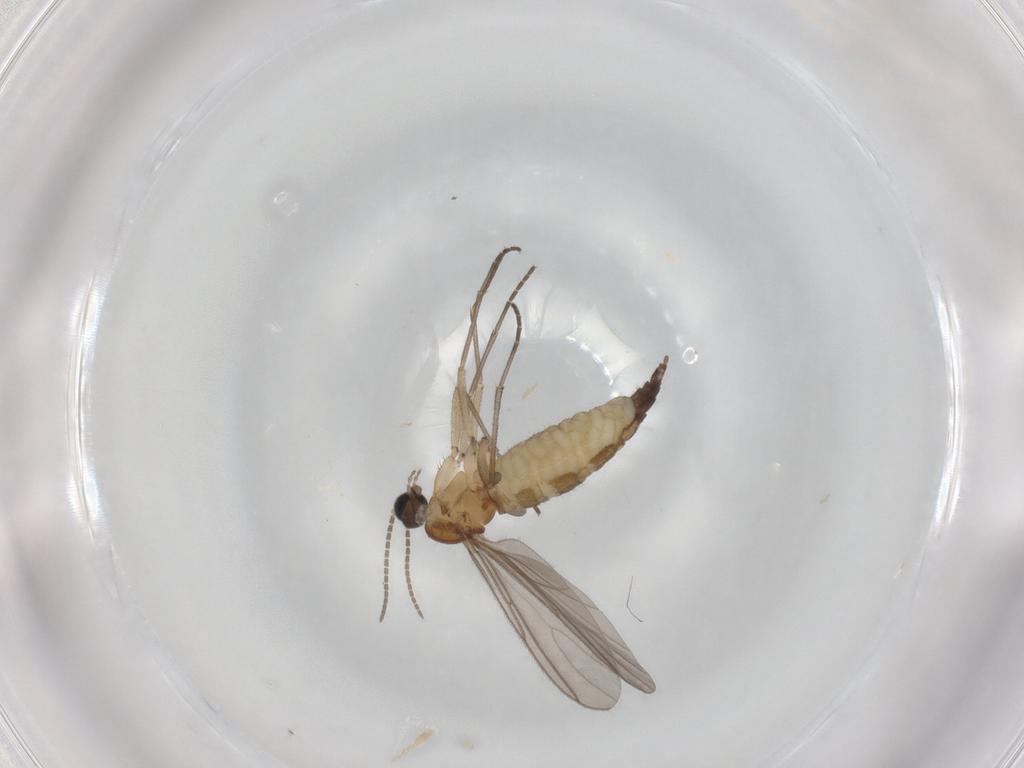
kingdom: Animalia
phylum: Arthropoda
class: Insecta
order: Diptera
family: Sciaridae
